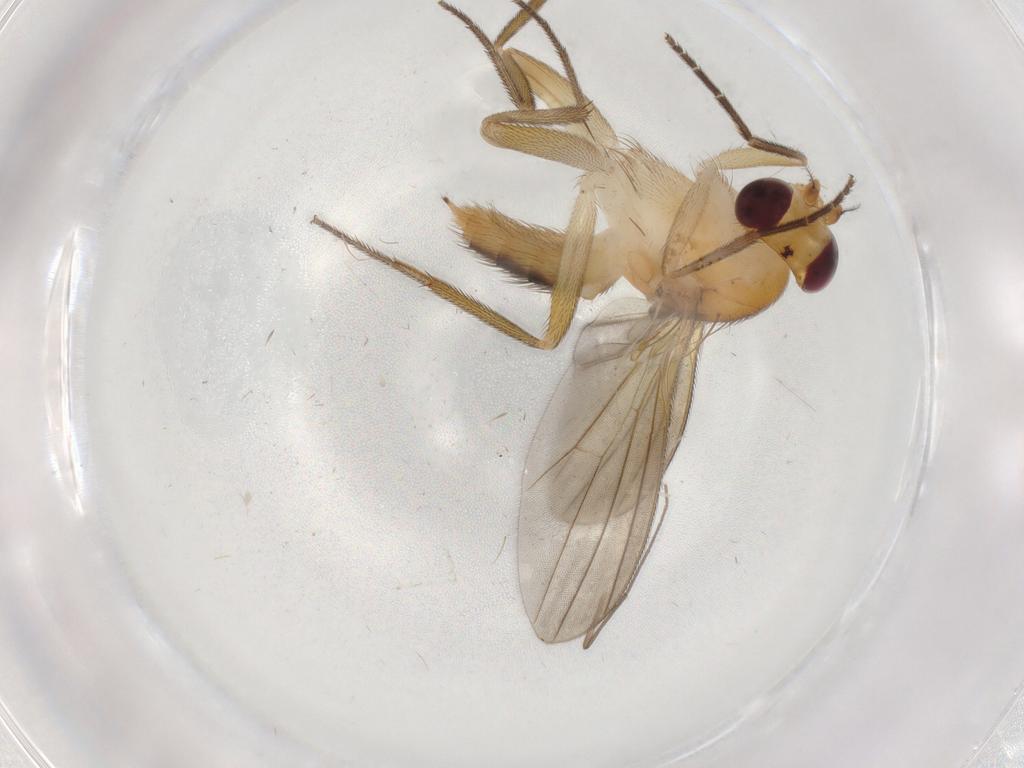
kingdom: Animalia
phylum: Arthropoda
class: Insecta
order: Diptera
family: Clusiidae
